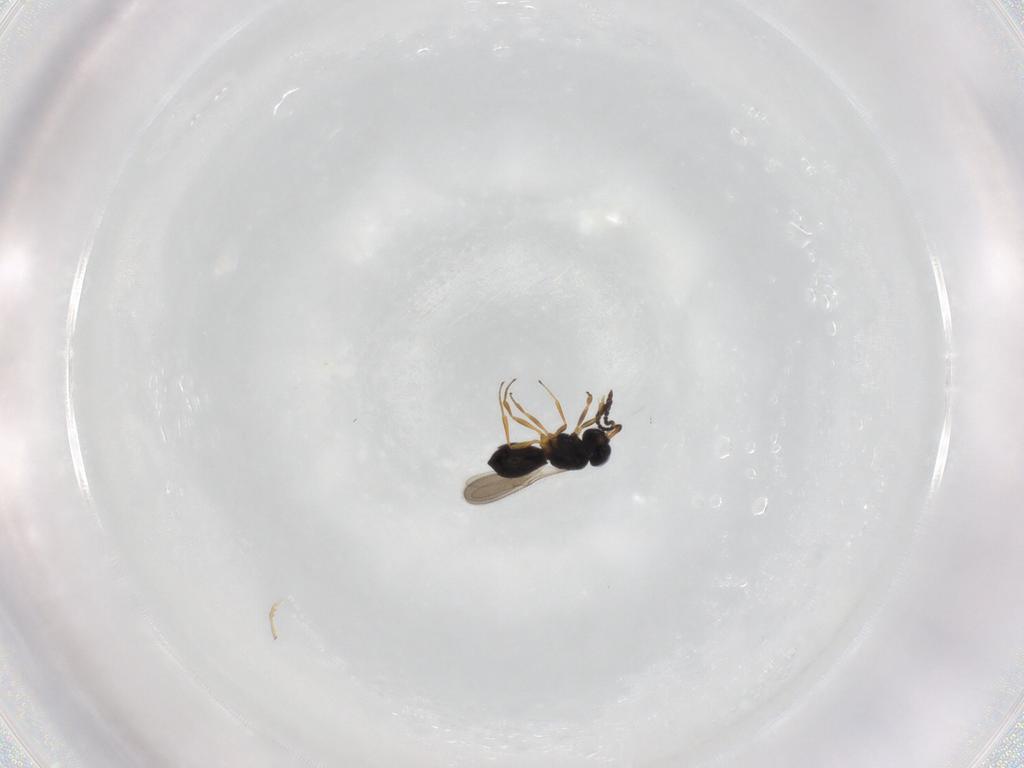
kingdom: Animalia
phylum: Arthropoda
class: Insecta
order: Hymenoptera
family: Scelionidae
